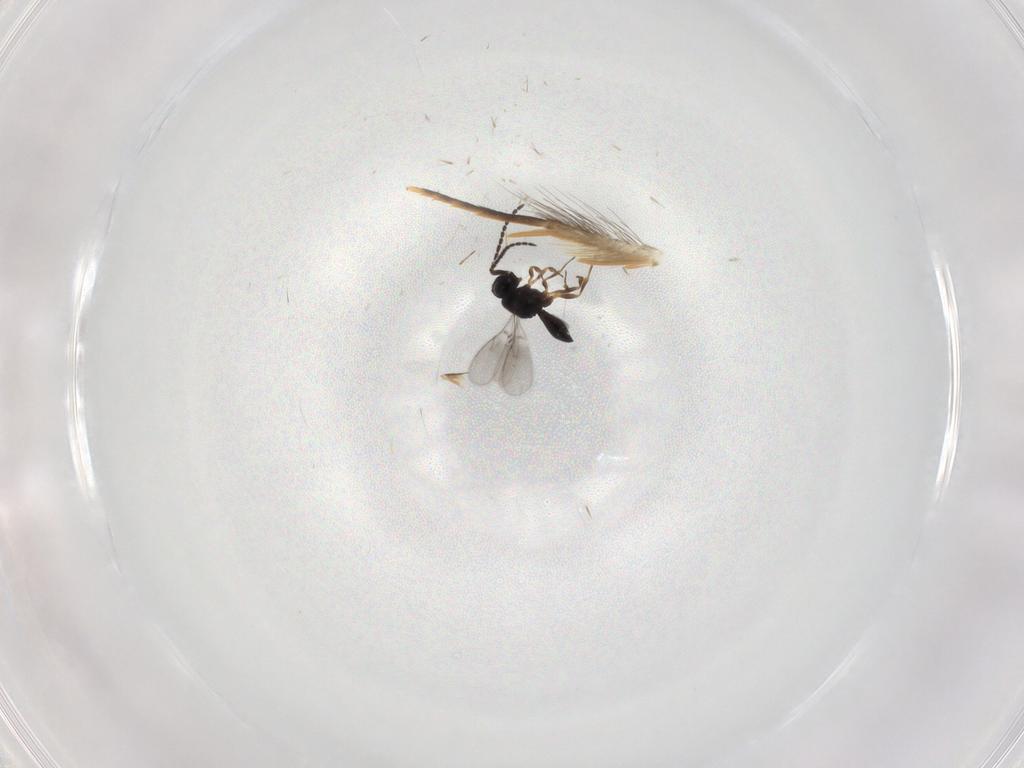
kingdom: Animalia
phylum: Arthropoda
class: Insecta
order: Hymenoptera
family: Scelionidae
